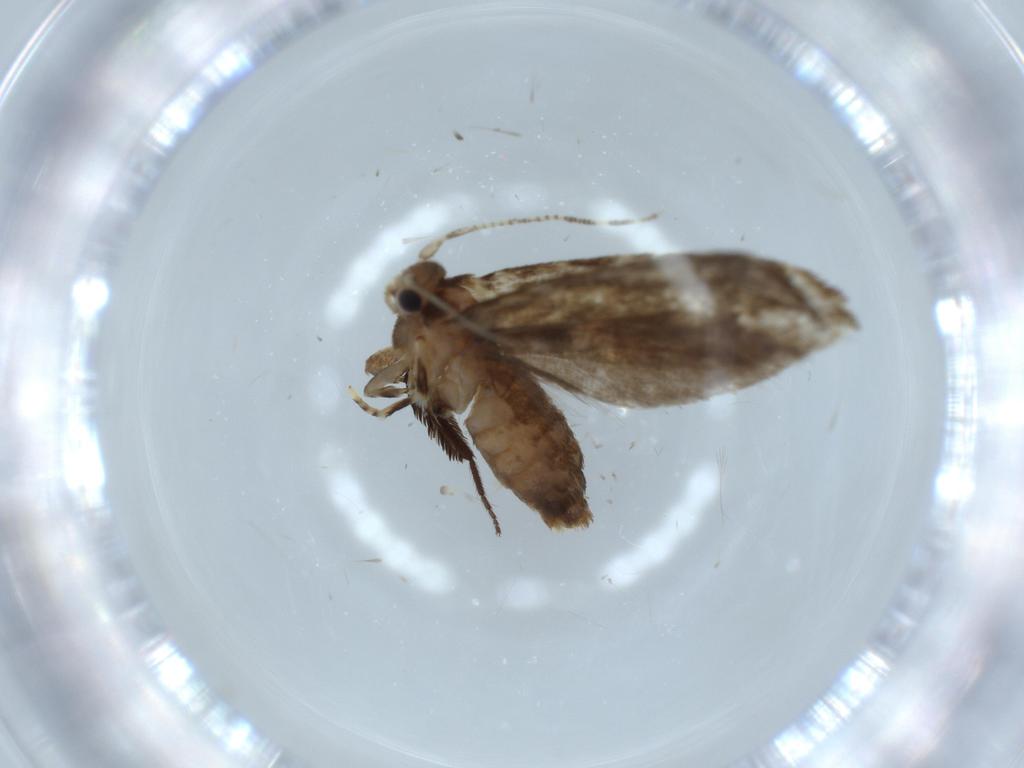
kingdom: Animalia
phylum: Arthropoda
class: Insecta
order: Lepidoptera
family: Tineidae
